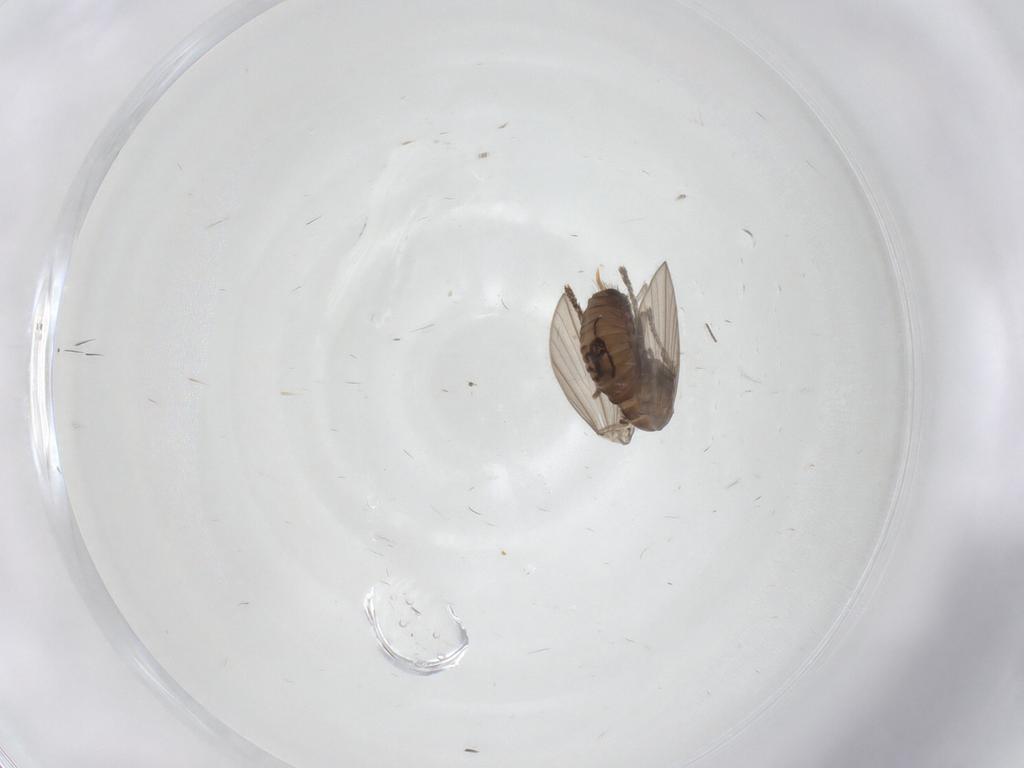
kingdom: Animalia
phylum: Arthropoda
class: Insecta
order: Diptera
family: Psychodidae
